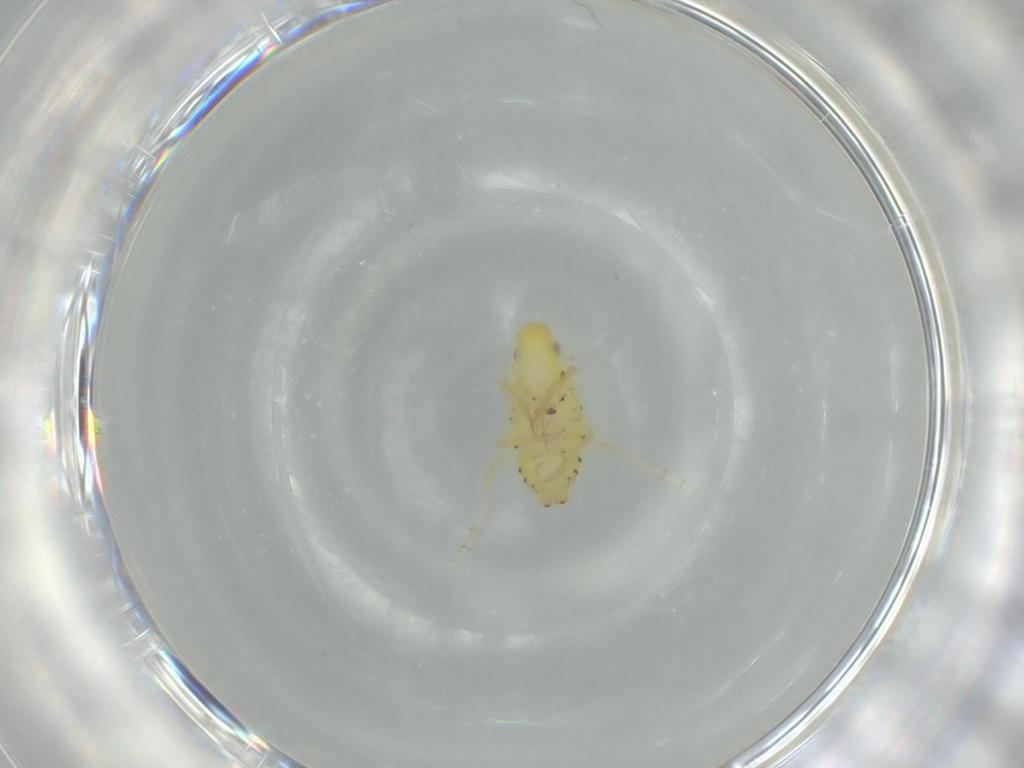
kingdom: Animalia
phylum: Arthropoda
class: Insecta
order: Hemiptera
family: Tropiduchidae
